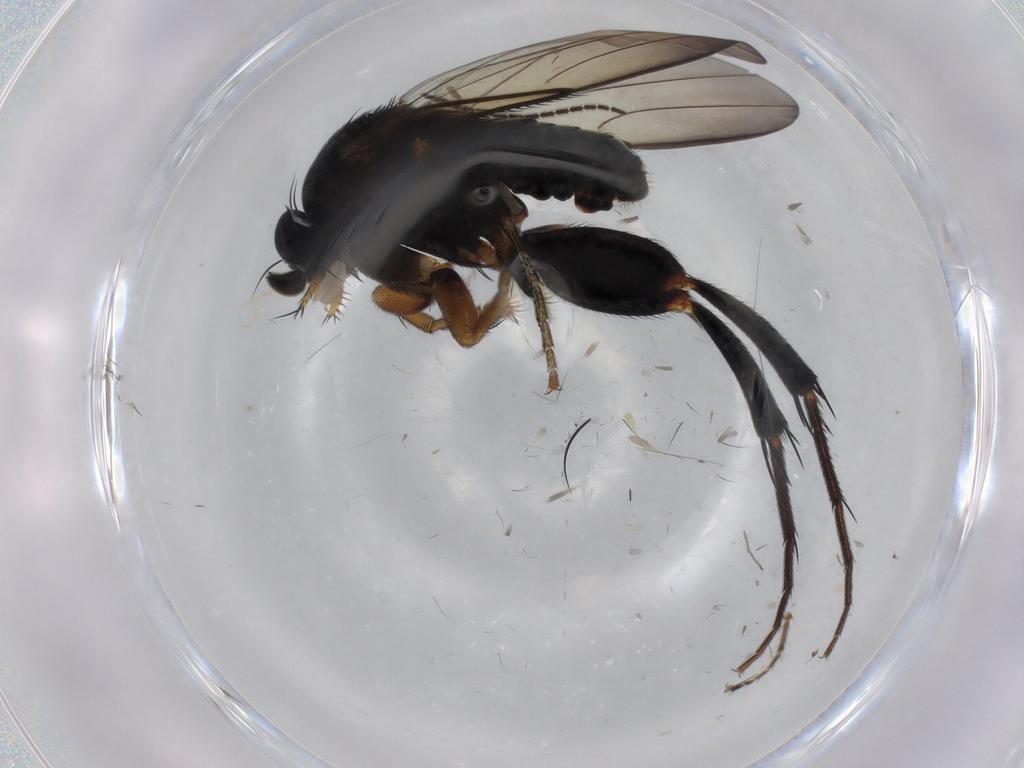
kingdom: Animalia
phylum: Arthropoda
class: Insecta
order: Diptera
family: Phoridae
